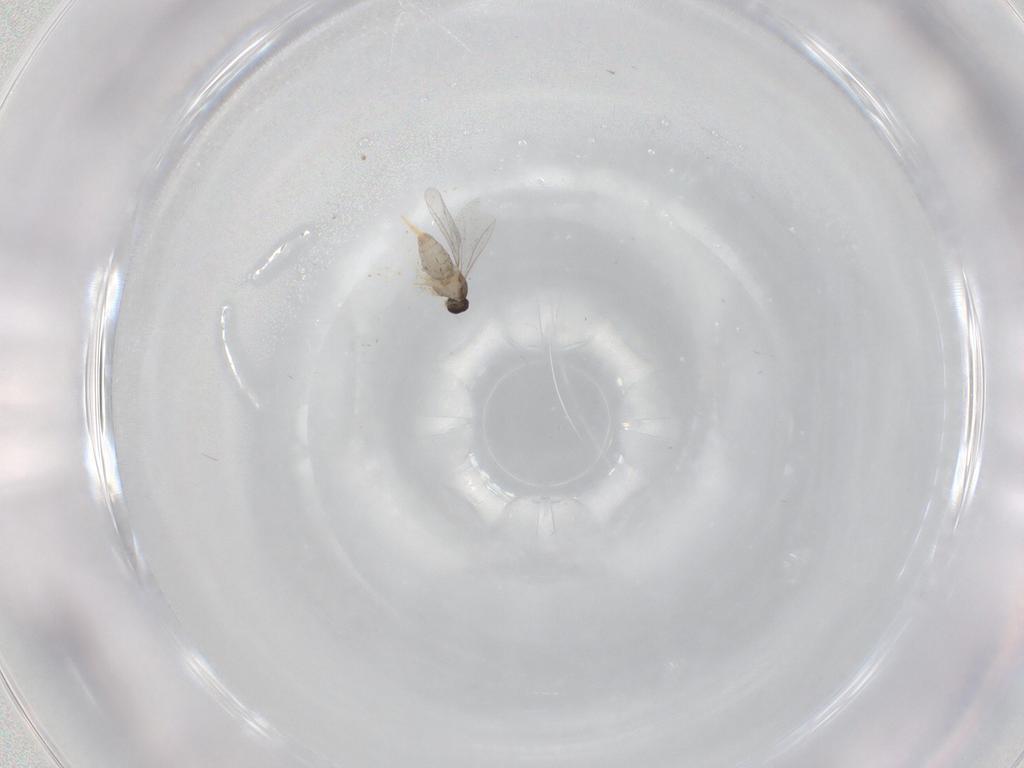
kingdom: Animalia
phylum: Arthropoda
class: Insecta
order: Diptera
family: Cecidomyiidae
